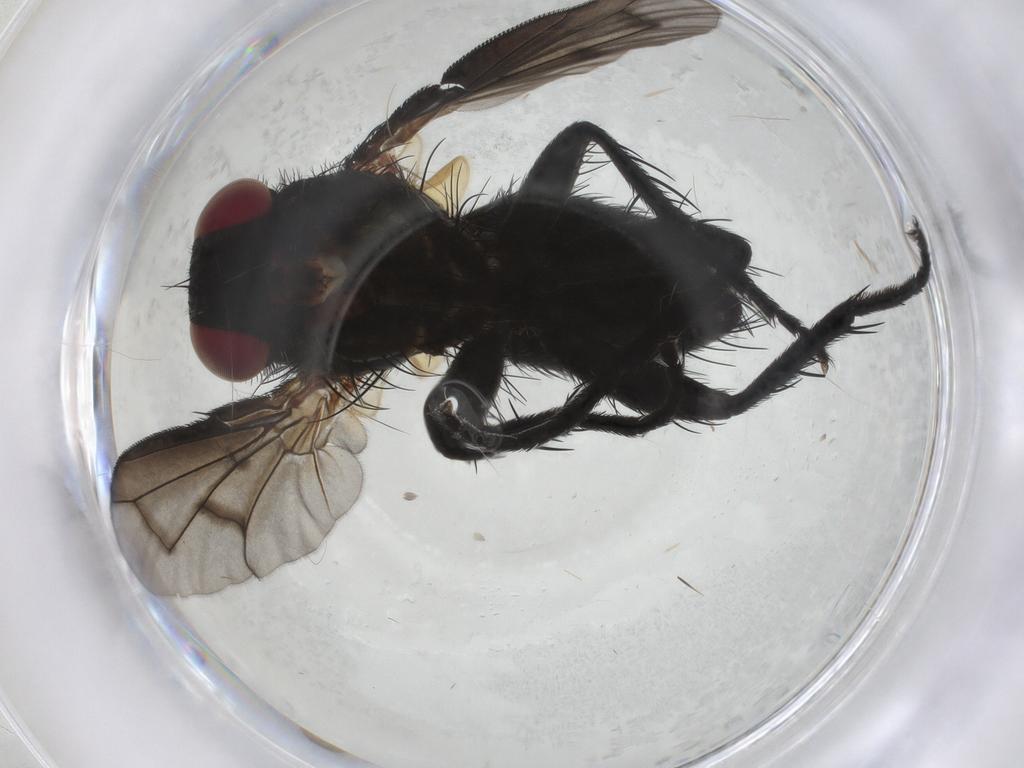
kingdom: Animalia
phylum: Arthropoda
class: Insecta
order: Diptera
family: Tachinidae
